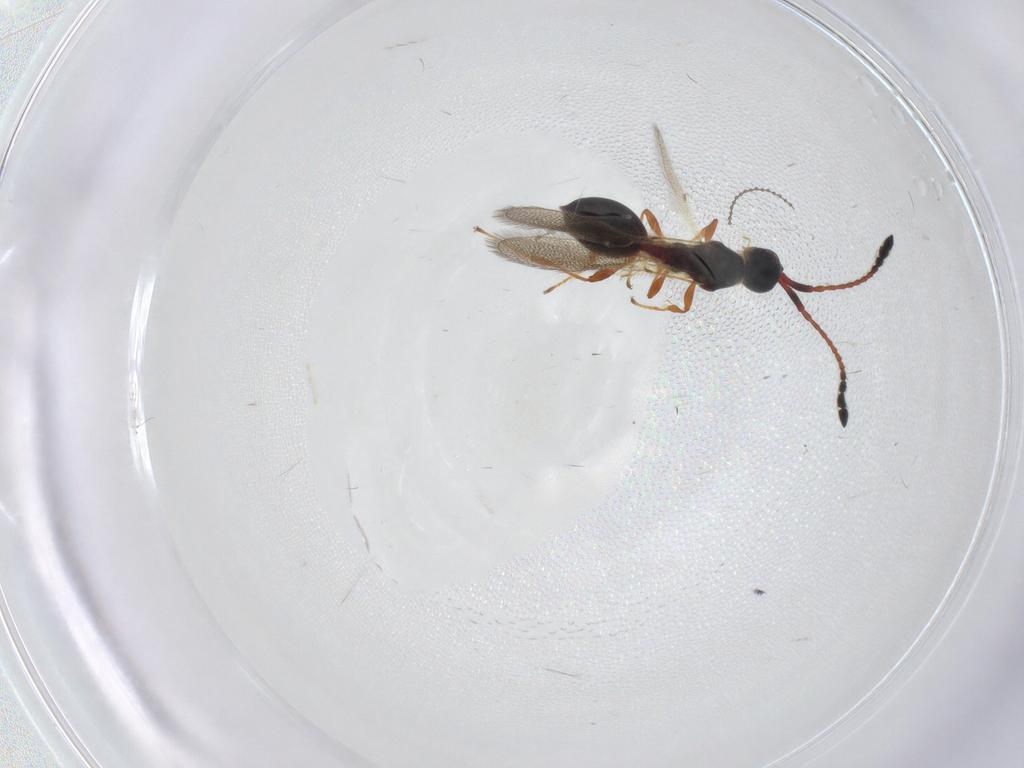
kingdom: Animalia
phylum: Arthropoda
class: Insecta
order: Hymenoptera
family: Diapriidae
